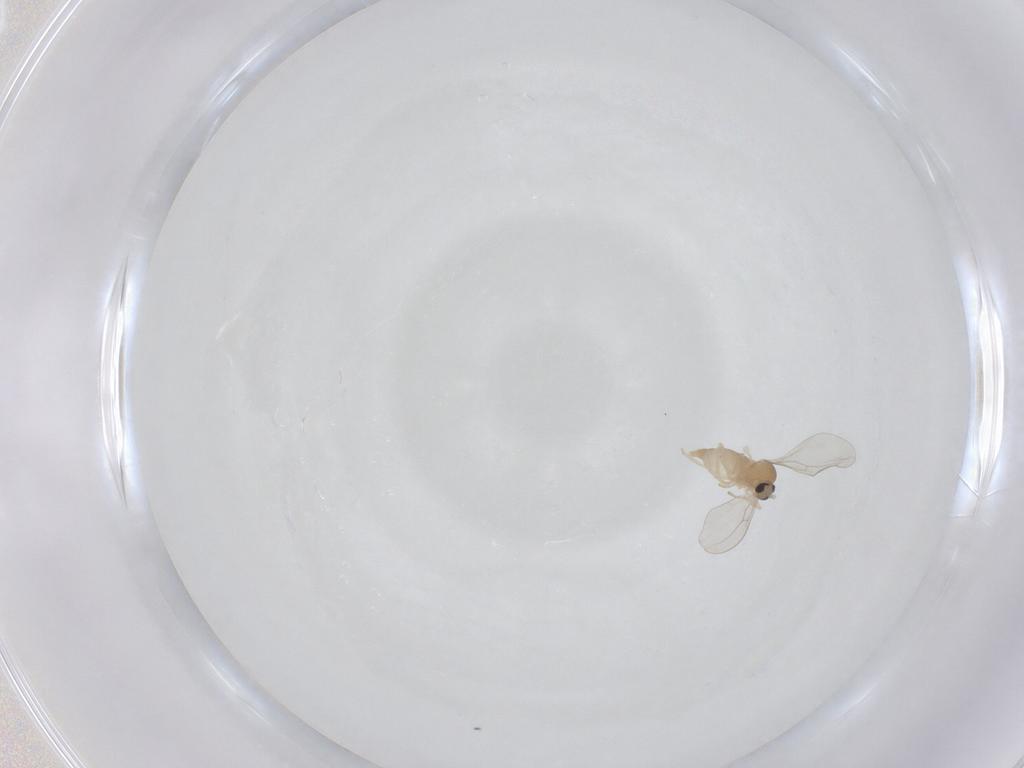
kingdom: Animalia
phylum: Arthropoda
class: Insecta
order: Diptera
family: Cecidomyiidae
